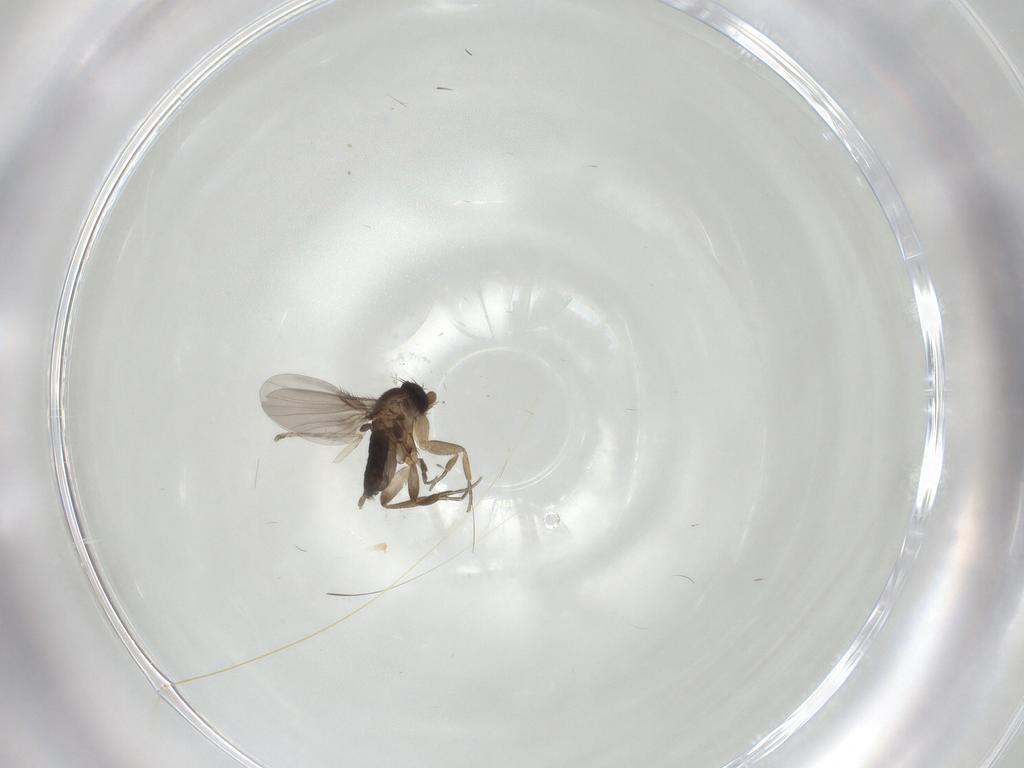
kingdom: Animalia
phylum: Arthropoda
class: Insecta
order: Diptera
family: Phoridae
